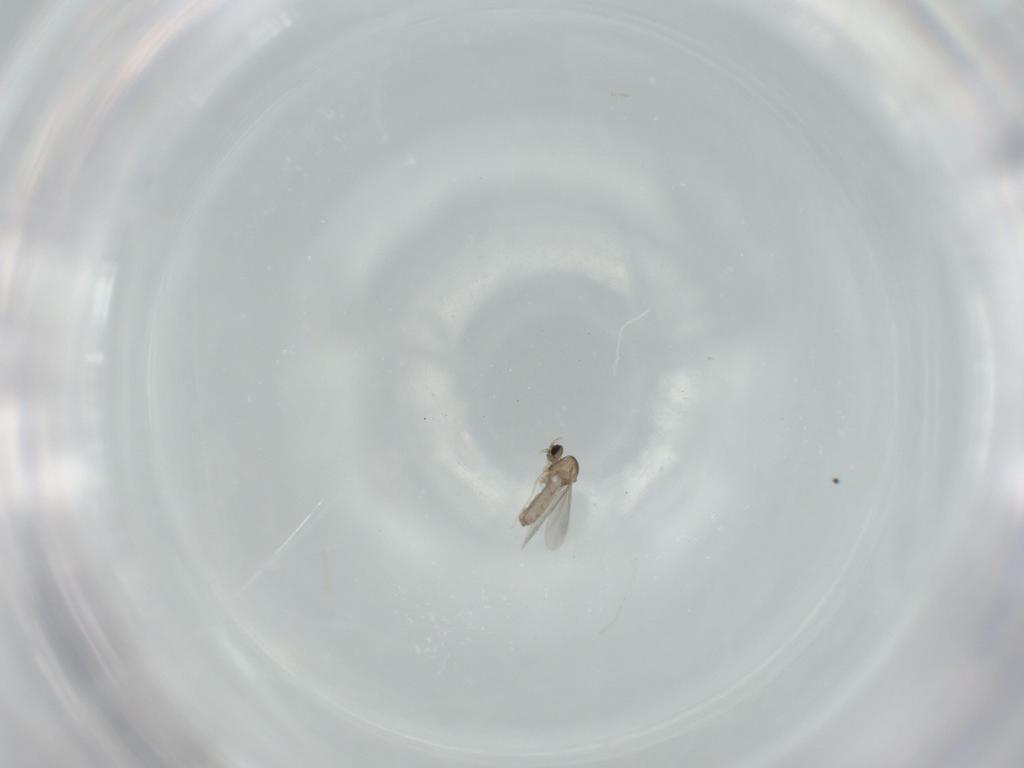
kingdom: Animalia
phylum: Arthropoda
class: Insecta
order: Diptera
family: Cecidomyiidae
